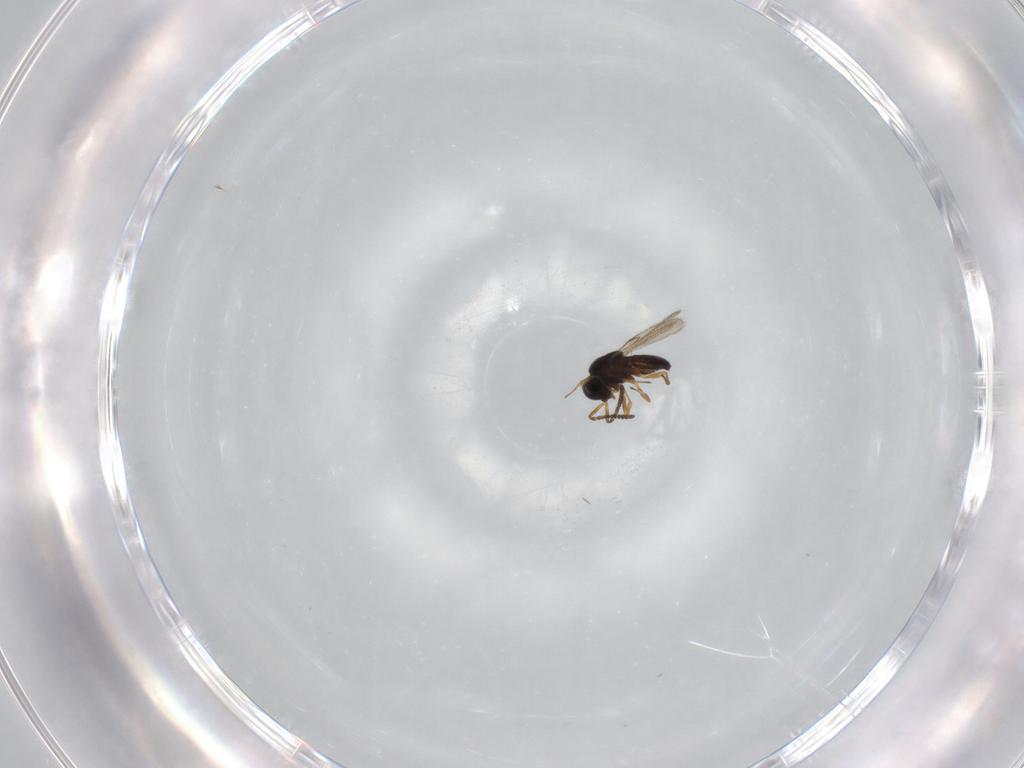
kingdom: Animalia
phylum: Arthropoda
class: Insecta
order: Hymenoptera
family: Scelionidae
